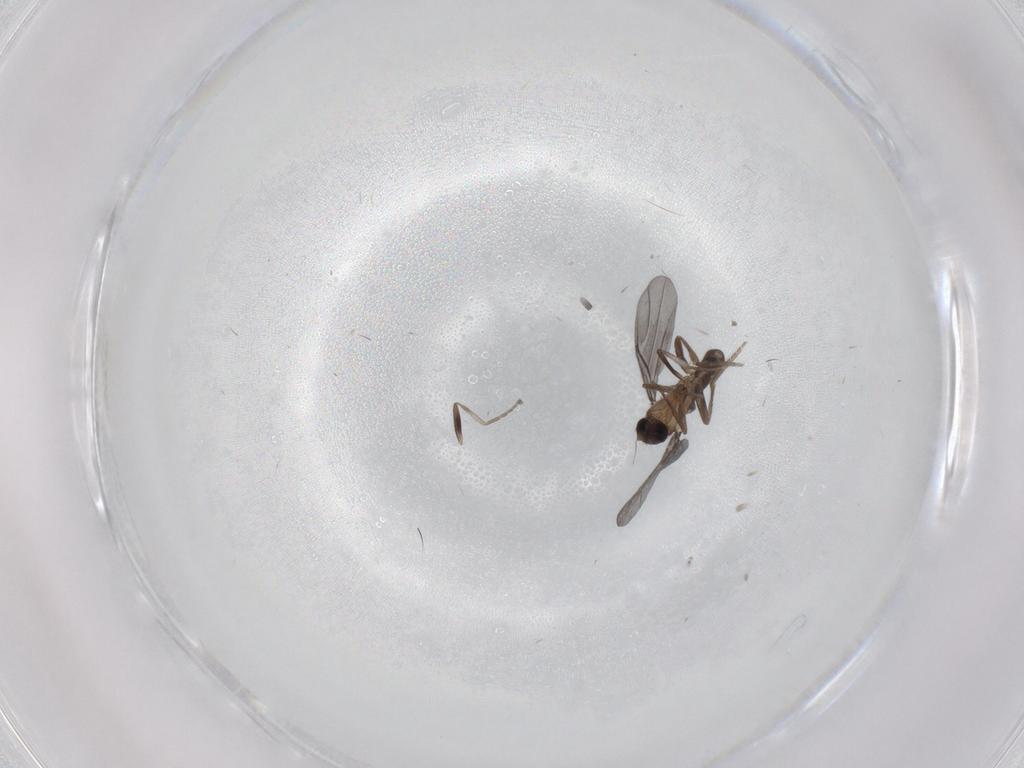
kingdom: Animalia
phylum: Arthropoda
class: Insecta
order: Diptera
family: Phoridae
